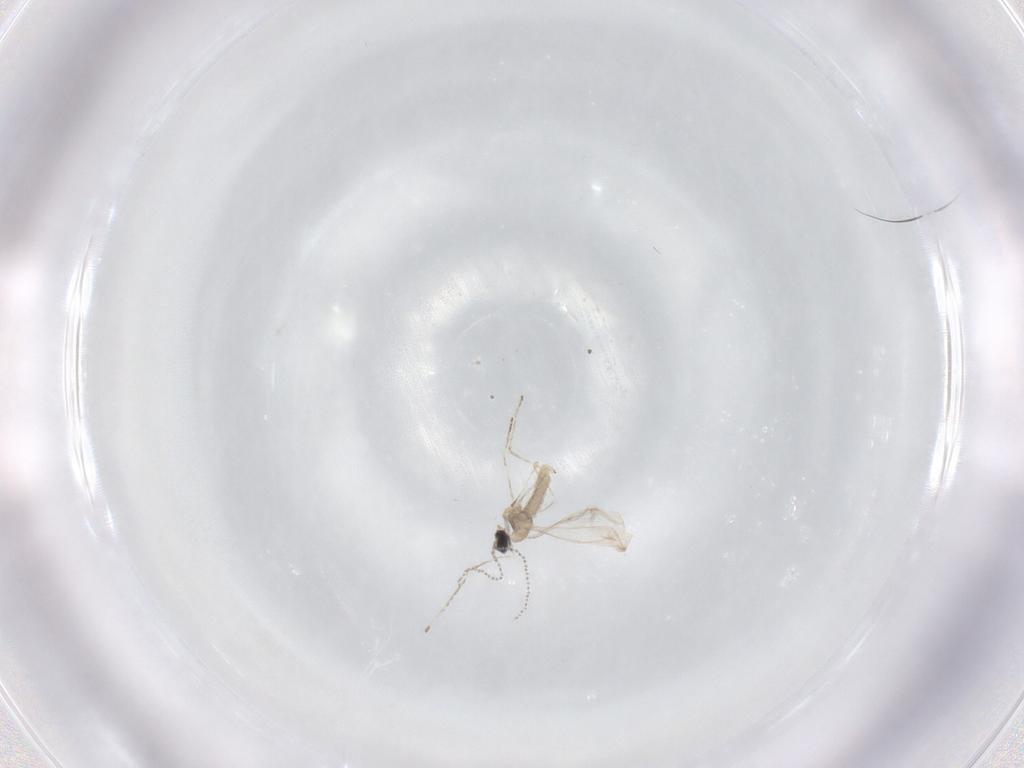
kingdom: Animalia
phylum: Arthropoda
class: Insecta
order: Diptera
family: Cecidomyiidae
